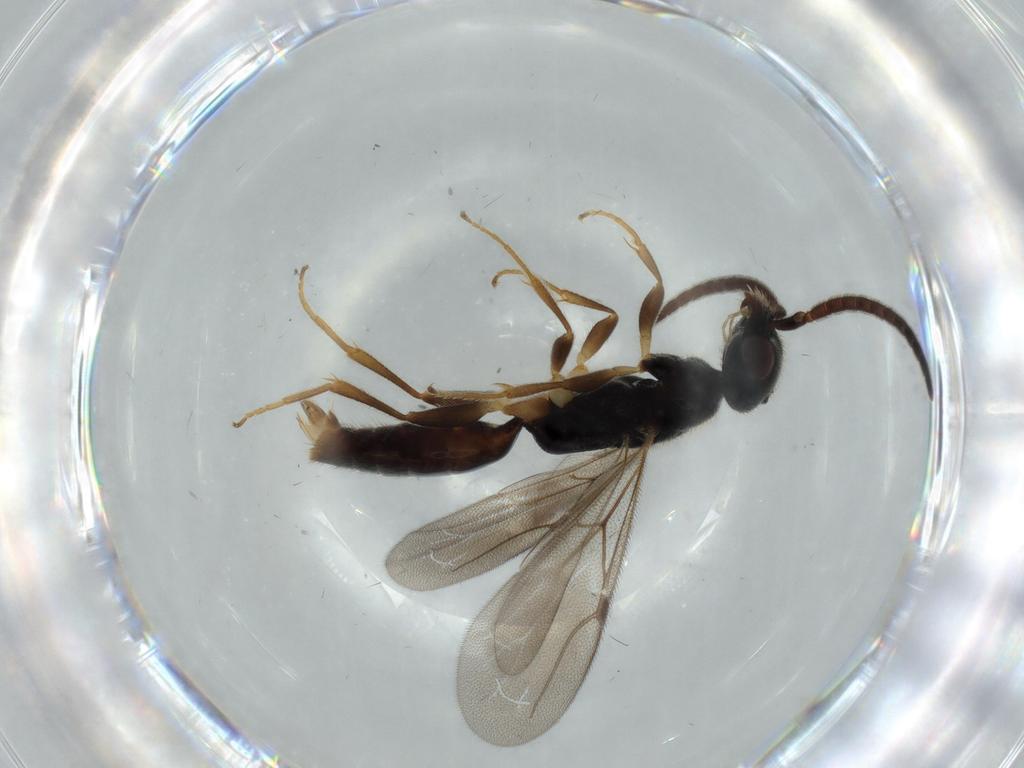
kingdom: Animalia
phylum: Arthropoda
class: Insecta
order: Hymenoptera
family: Bethylidae
